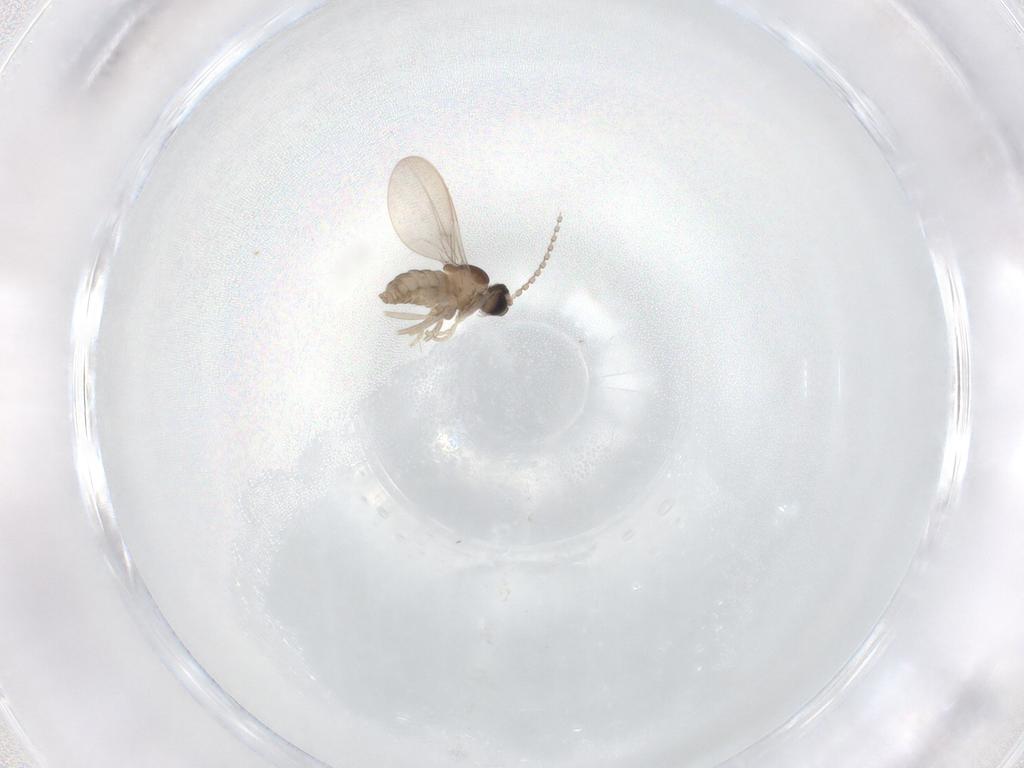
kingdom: Animalia
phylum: Arthropoda
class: Insecta
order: Diptera
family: Cecidomyiidae
